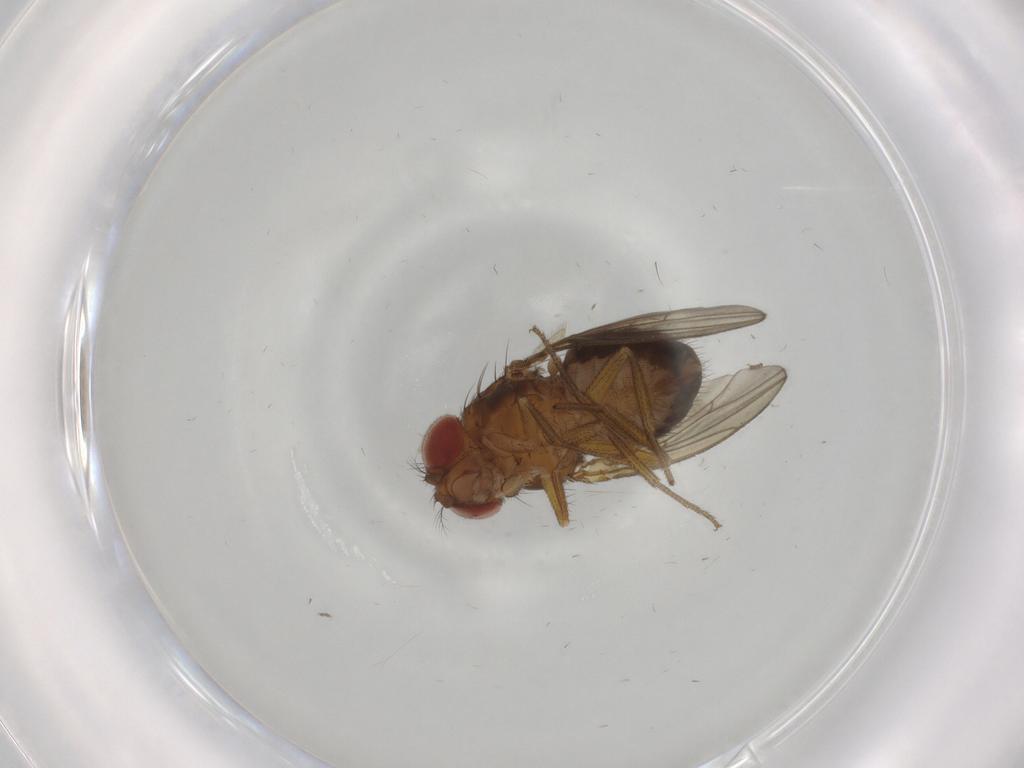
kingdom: Animalia
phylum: Arthropoda
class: Insecta
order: Diptera
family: Drosophilidae
